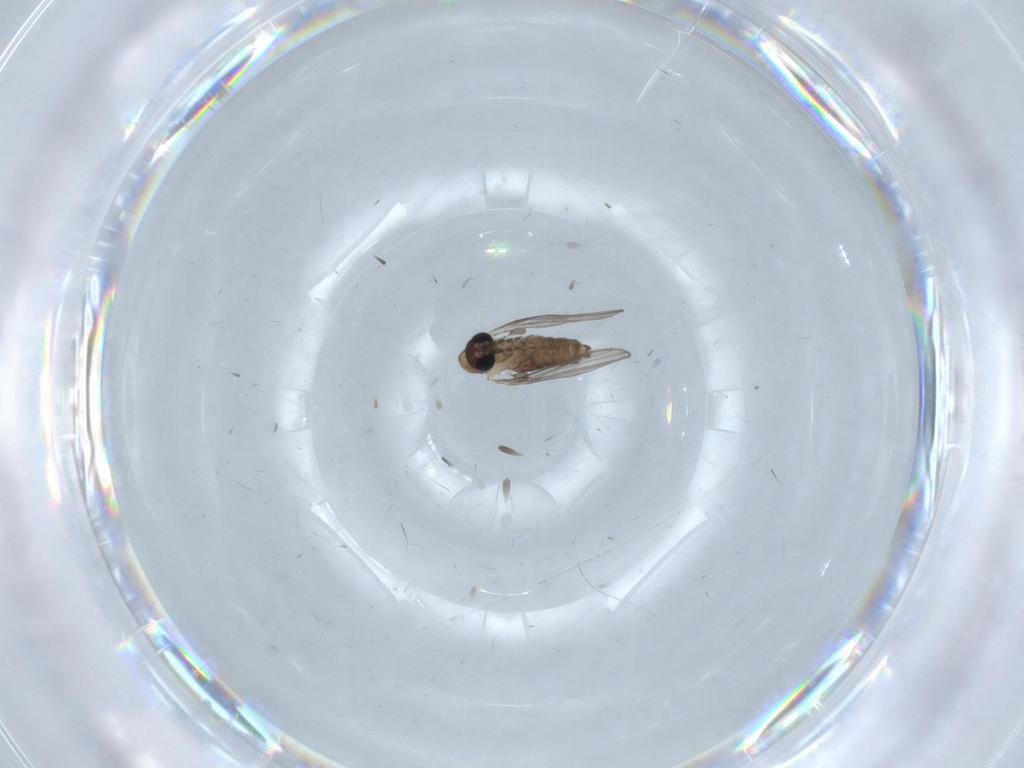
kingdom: Animalia
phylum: Arthropoda
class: Insecta
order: Diptera
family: Psychodidae
